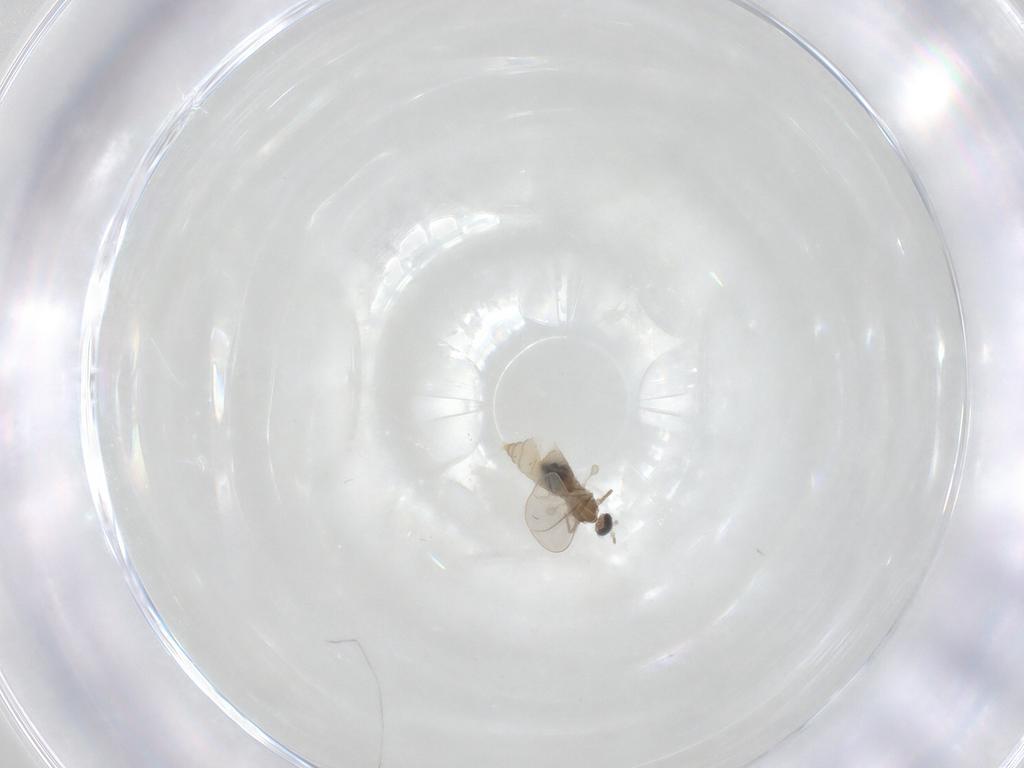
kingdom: Animalia
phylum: Arthropoda
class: Insecta
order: Diptera
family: Cecidomyiidae
